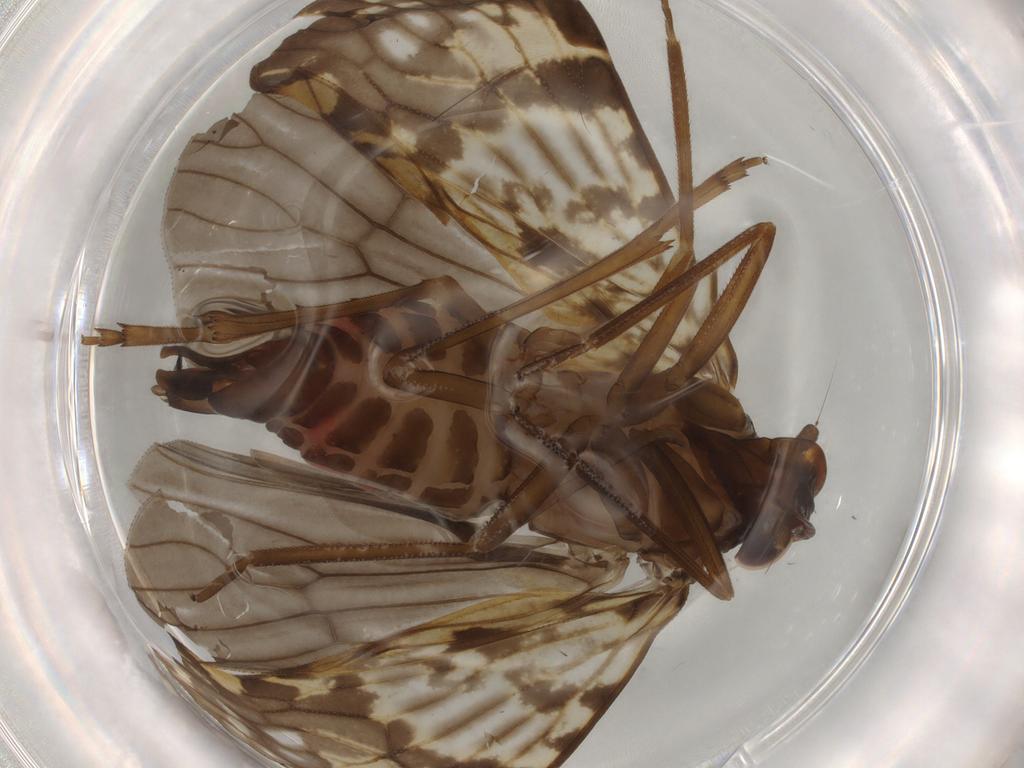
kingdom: Animalia
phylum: Arthropoda
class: Insecta
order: Hemiptera
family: Cixiidae
